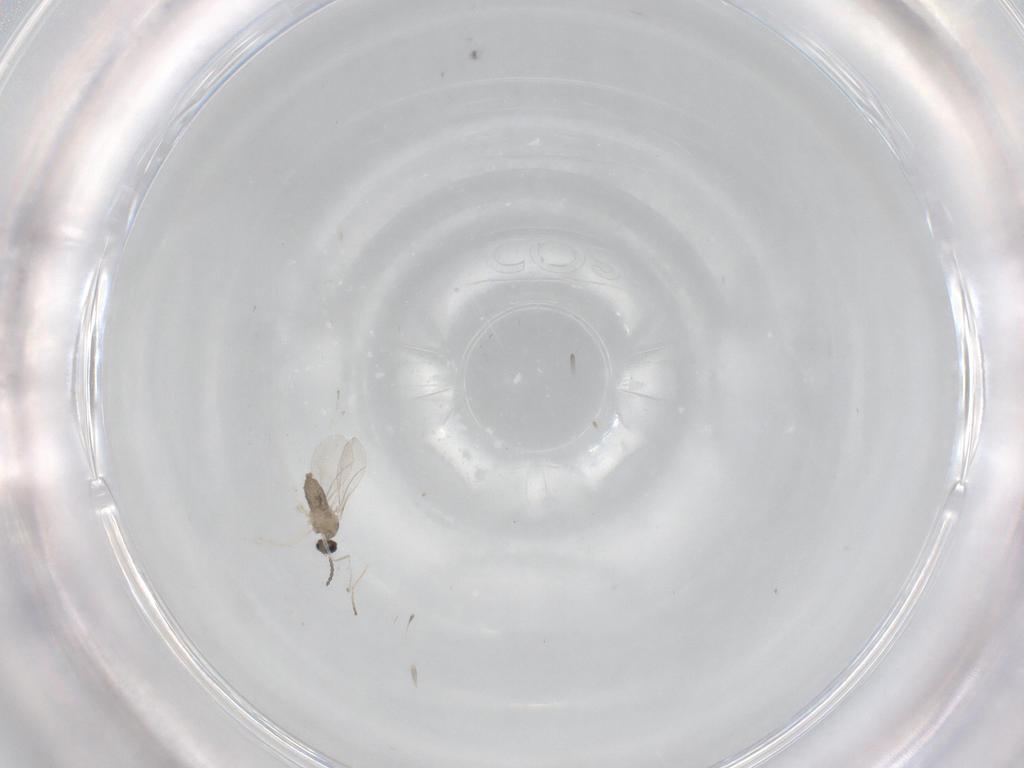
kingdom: Animalia
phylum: Arthropoda
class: Insecta
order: Diptera
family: Cecidomyiidae
